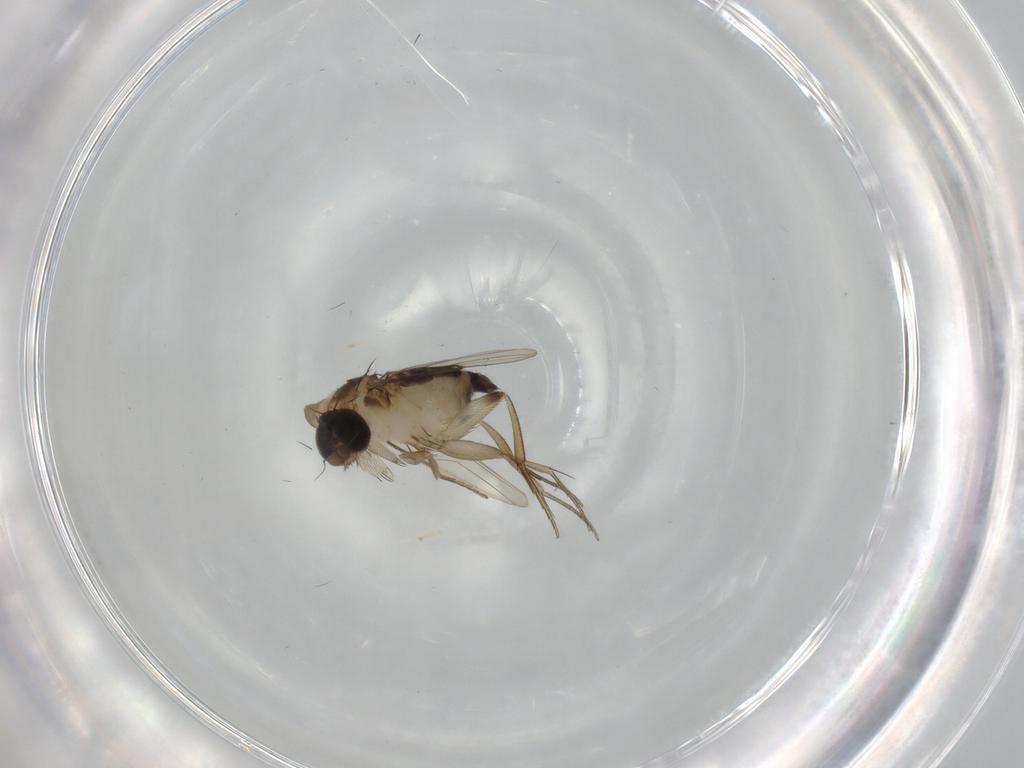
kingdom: Animalia
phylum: Arthropoda
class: Insecta
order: Diptera
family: Phoridae
